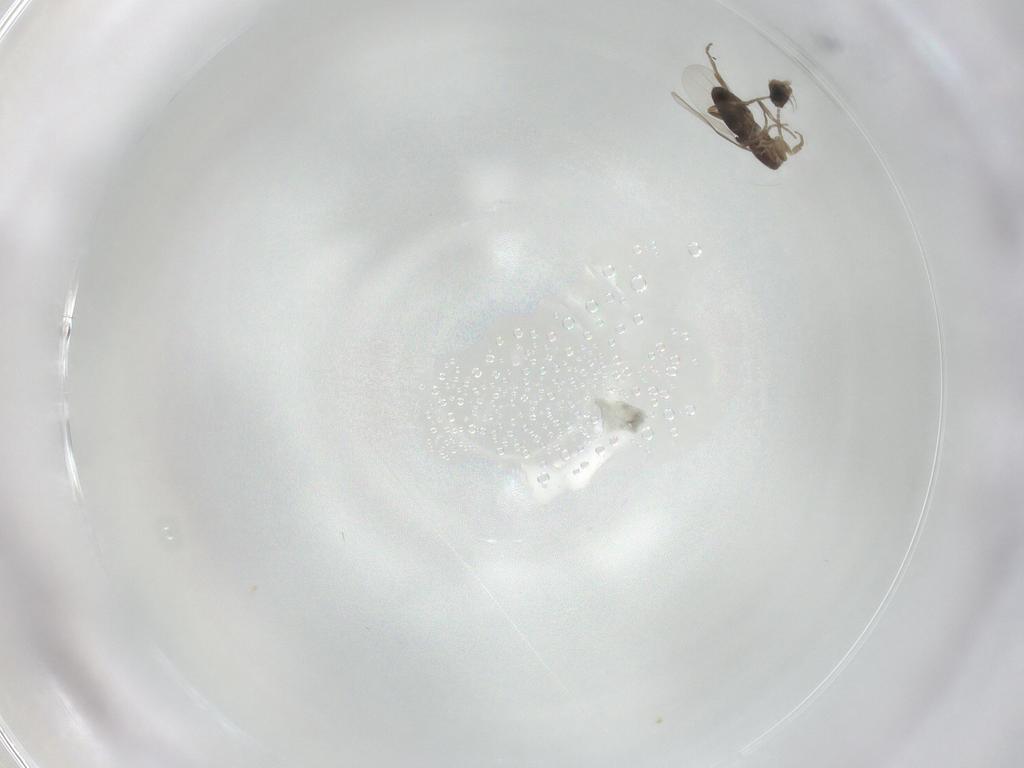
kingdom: Animalia
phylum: Arthropoda
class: Insecta
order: Diptera
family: Phoridae
